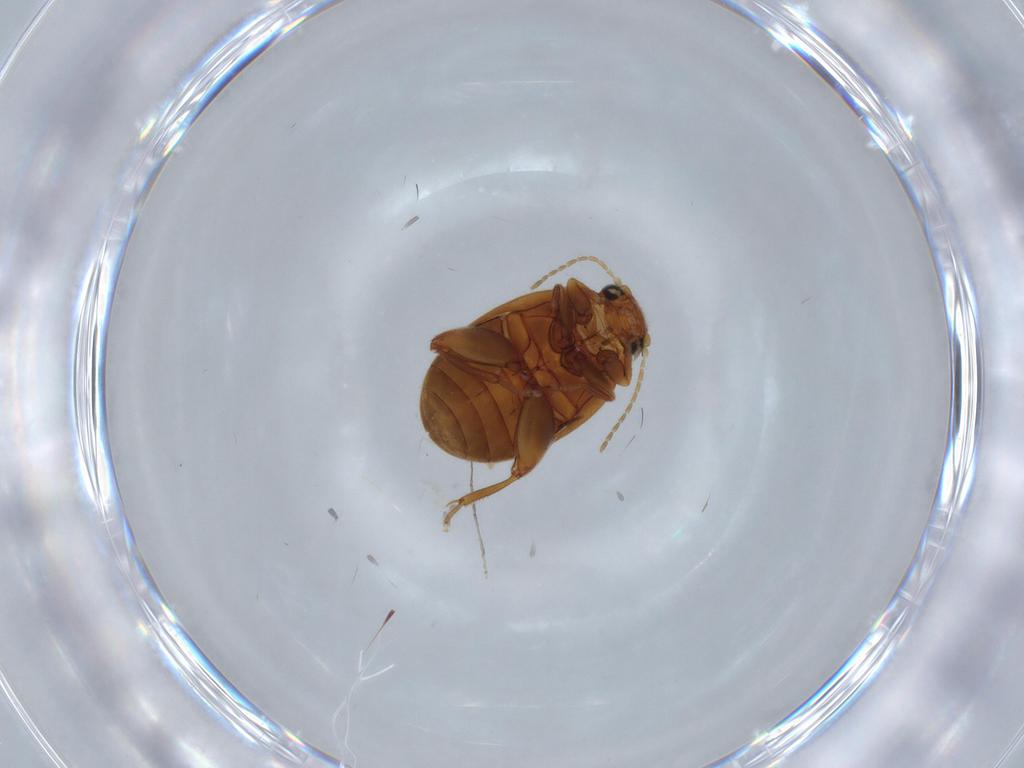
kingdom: Animalia
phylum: Arthropoda
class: Insecta
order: Coleoptera
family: Scirtidae
